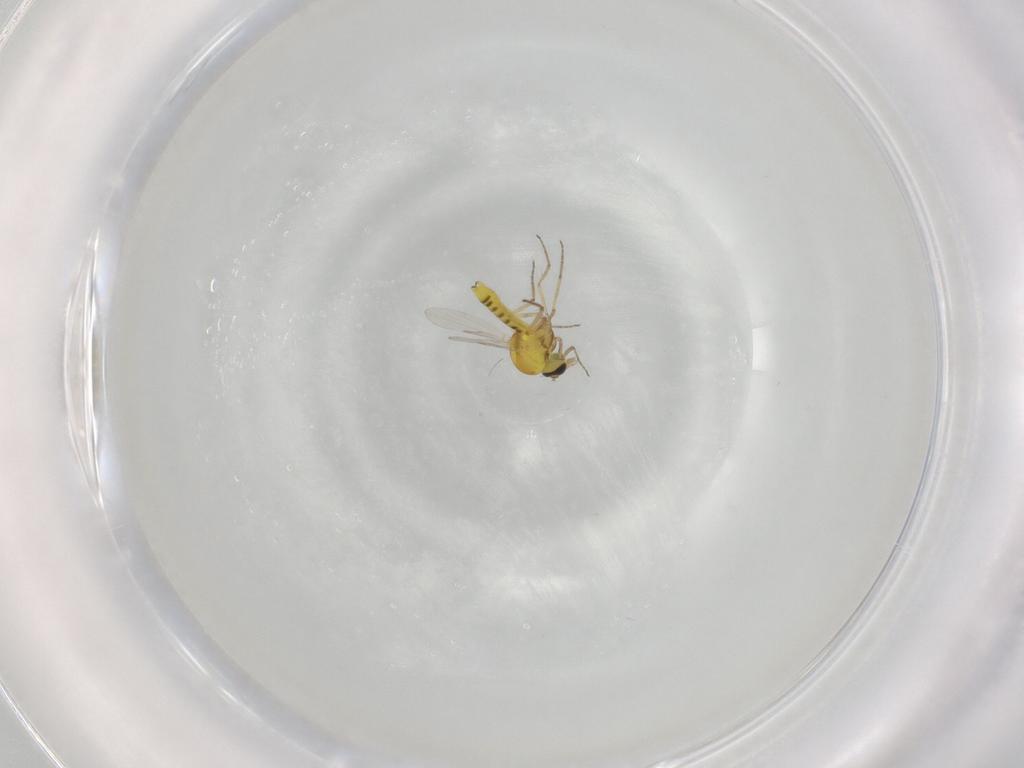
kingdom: Animalia
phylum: Arthropoda
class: Insecta
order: Diptera
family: Ceratopogonidae
